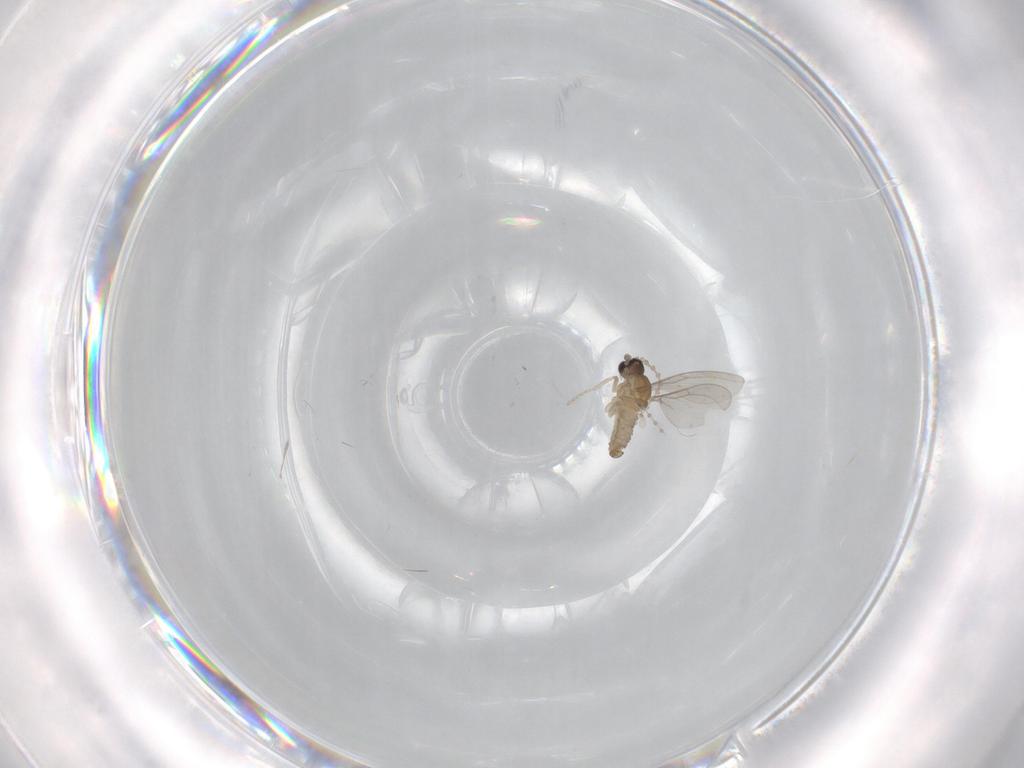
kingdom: Animalia
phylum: Arthropoda
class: Insecta
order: Diptera
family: Cecidomyiidae
